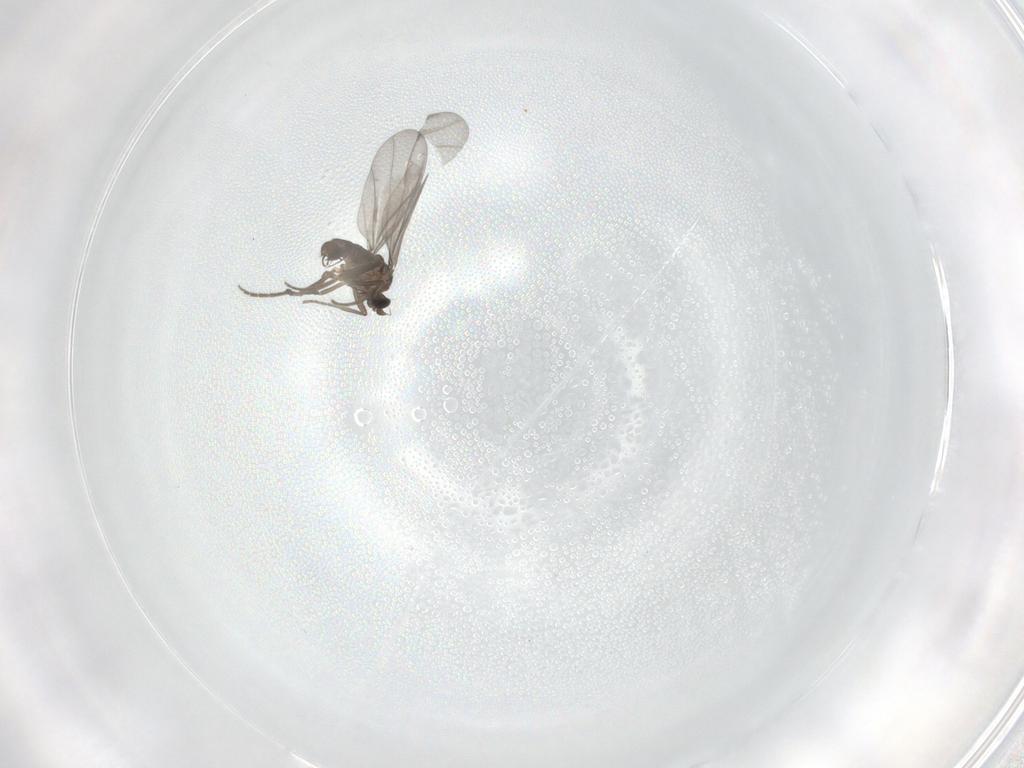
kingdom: Animalia
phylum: Arthropoda
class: Insecta
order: Diptera
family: Phoridae
